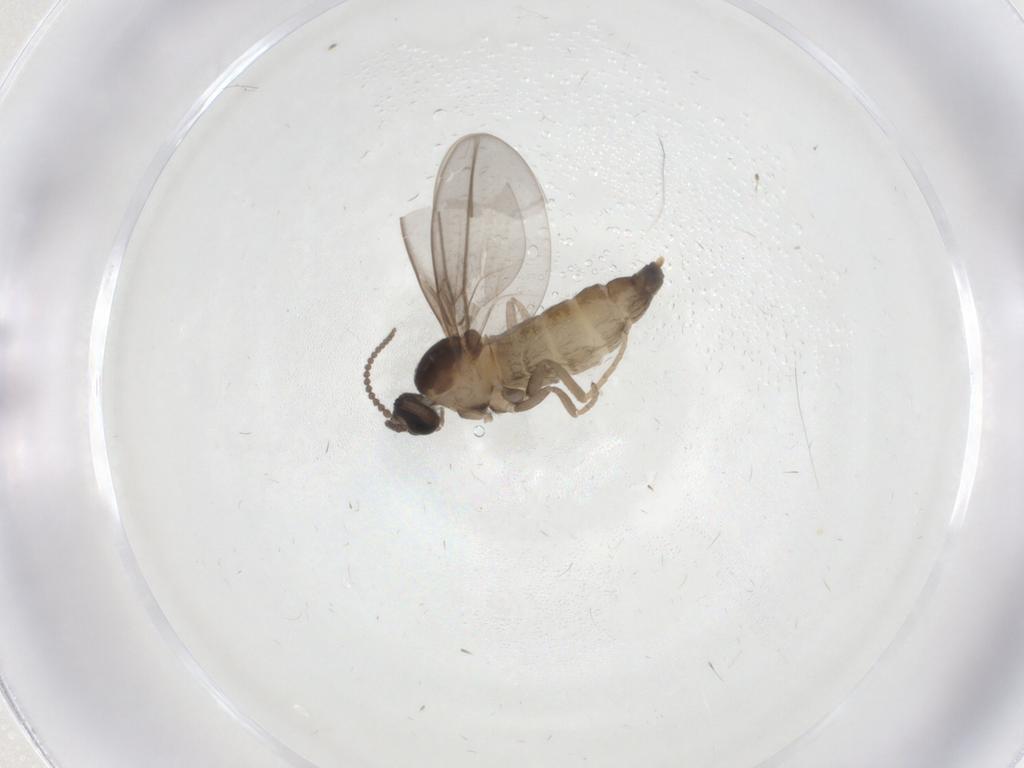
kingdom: Animalia
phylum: Arthropoda
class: Insecta
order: Diptera
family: Cecidomyiidae
